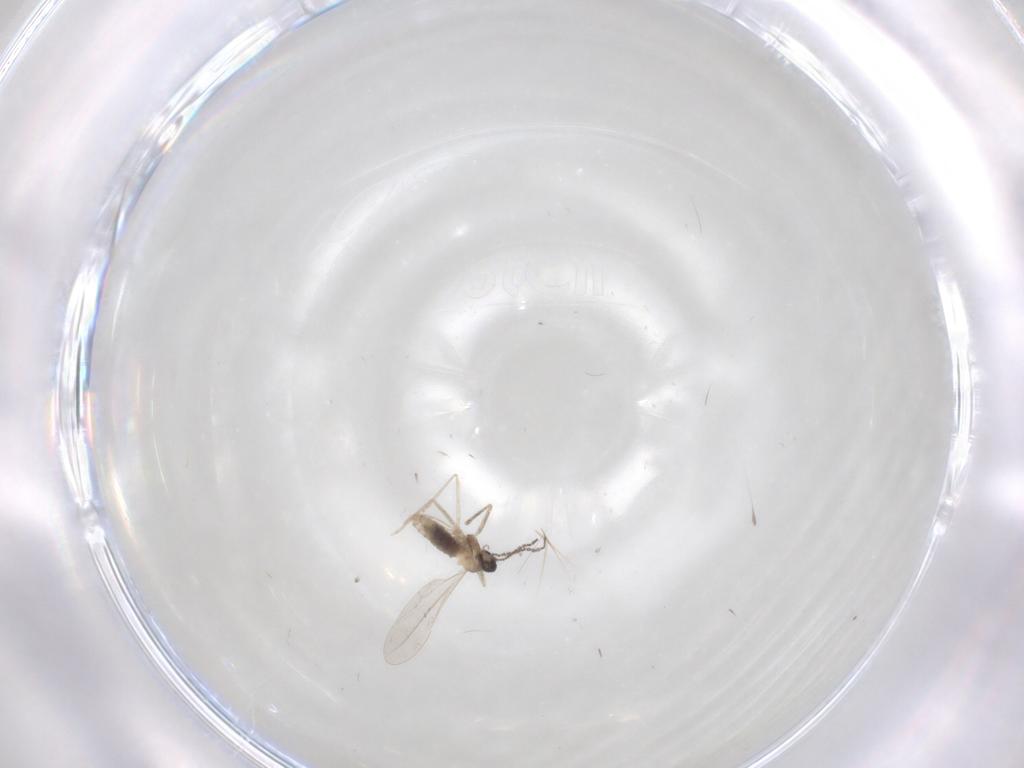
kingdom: Animalia
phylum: Arthropoda
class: Insecta
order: Diptera
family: Cecidomyiidae
